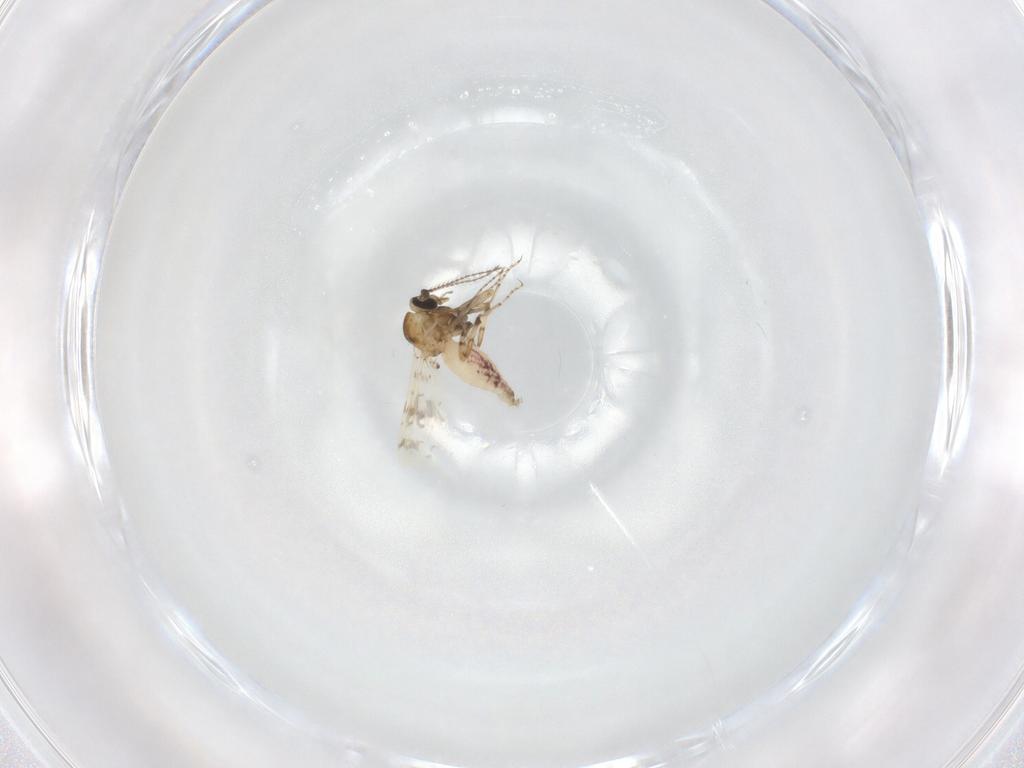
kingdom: Animalia
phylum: Arthropoda
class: Insecta
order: Diptera
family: Ceratopogonidae
